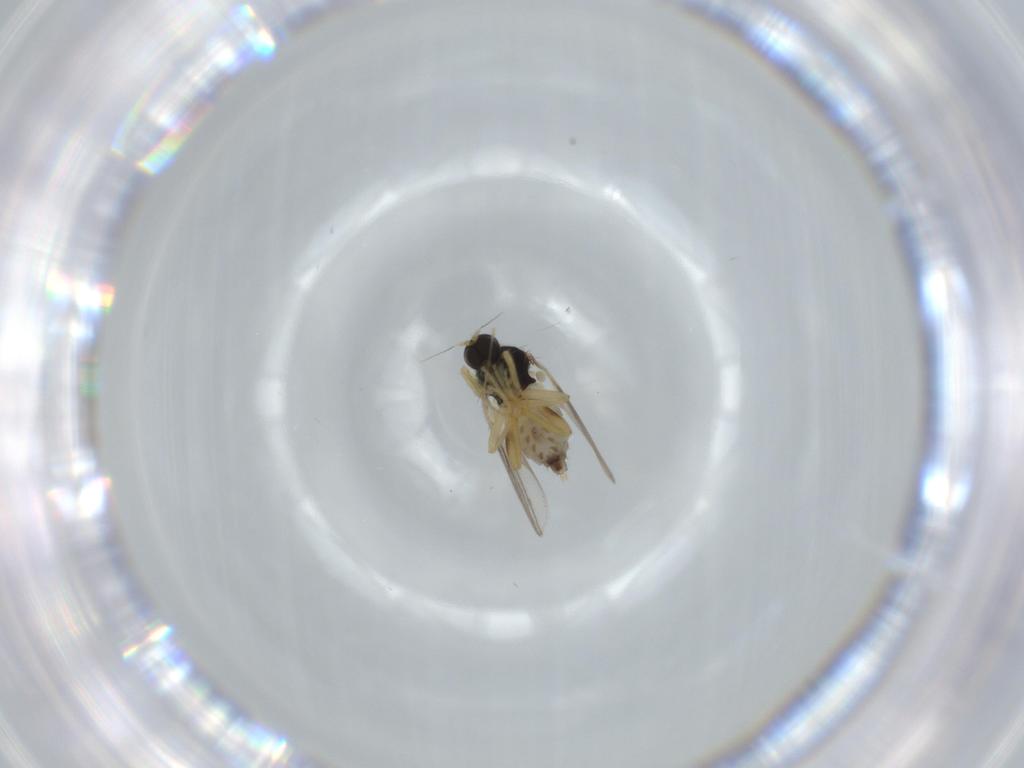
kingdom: Animalia
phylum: Arthropoda
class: Insecta
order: Diptera
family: Hybotidae
